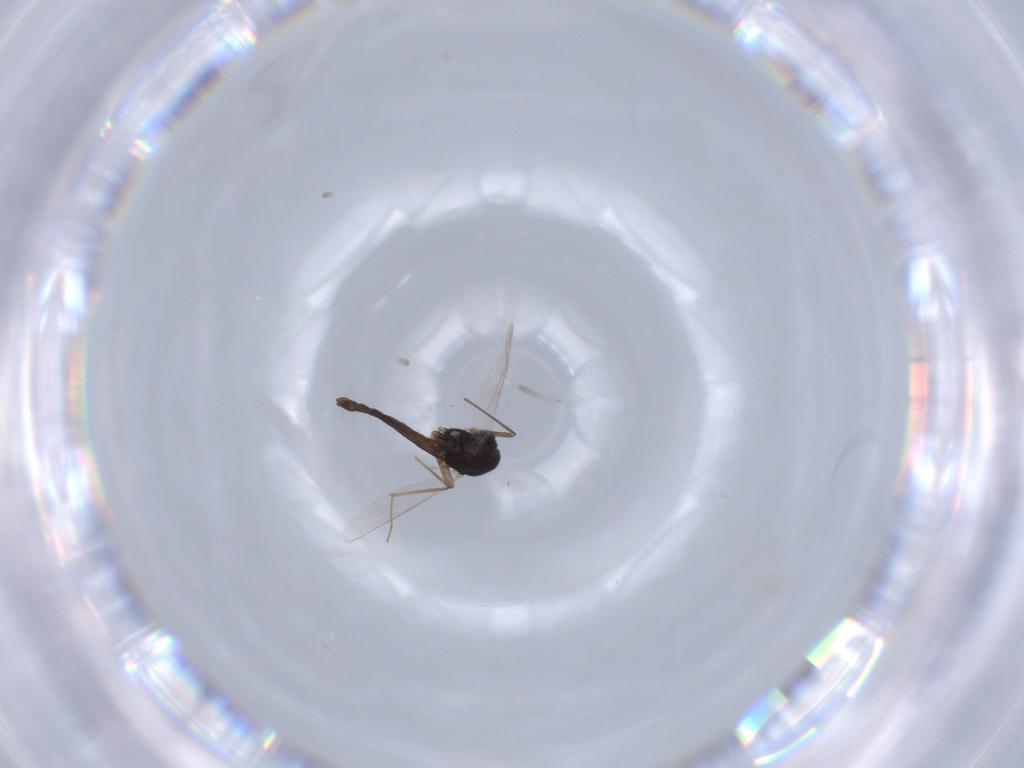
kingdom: Animalia
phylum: Arthropoda
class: Insecta
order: Diptera
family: Chironomidae
